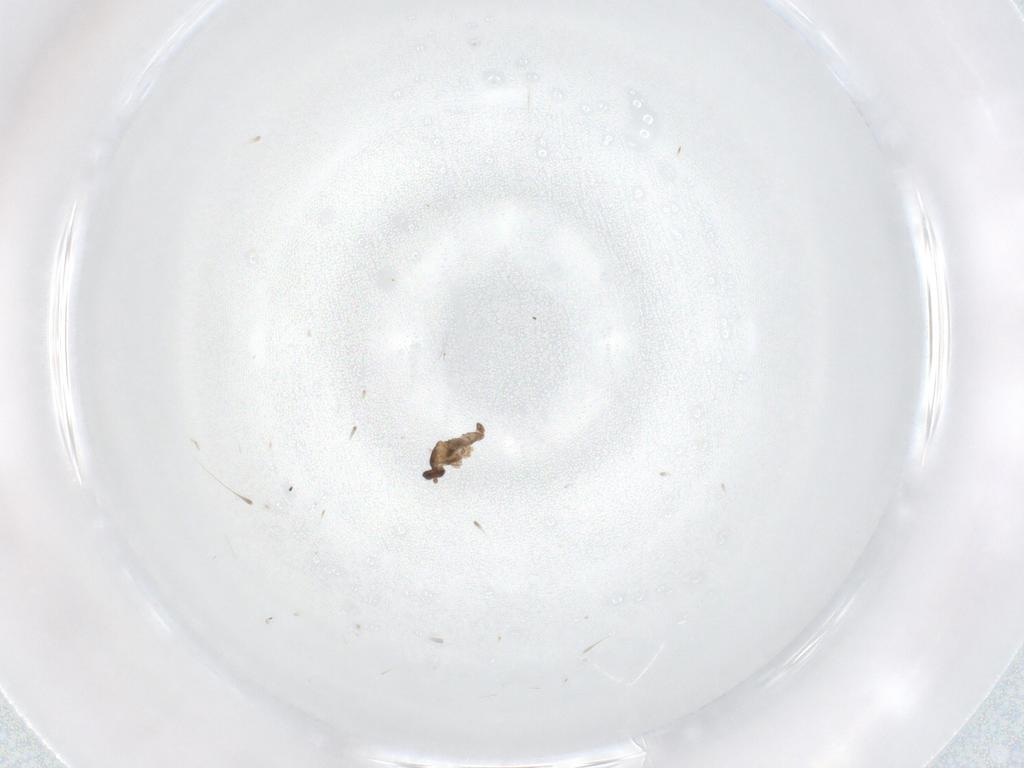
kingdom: Animalia
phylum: Arthropoda
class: Insecta
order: Diptera
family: Cecidomyiidae
